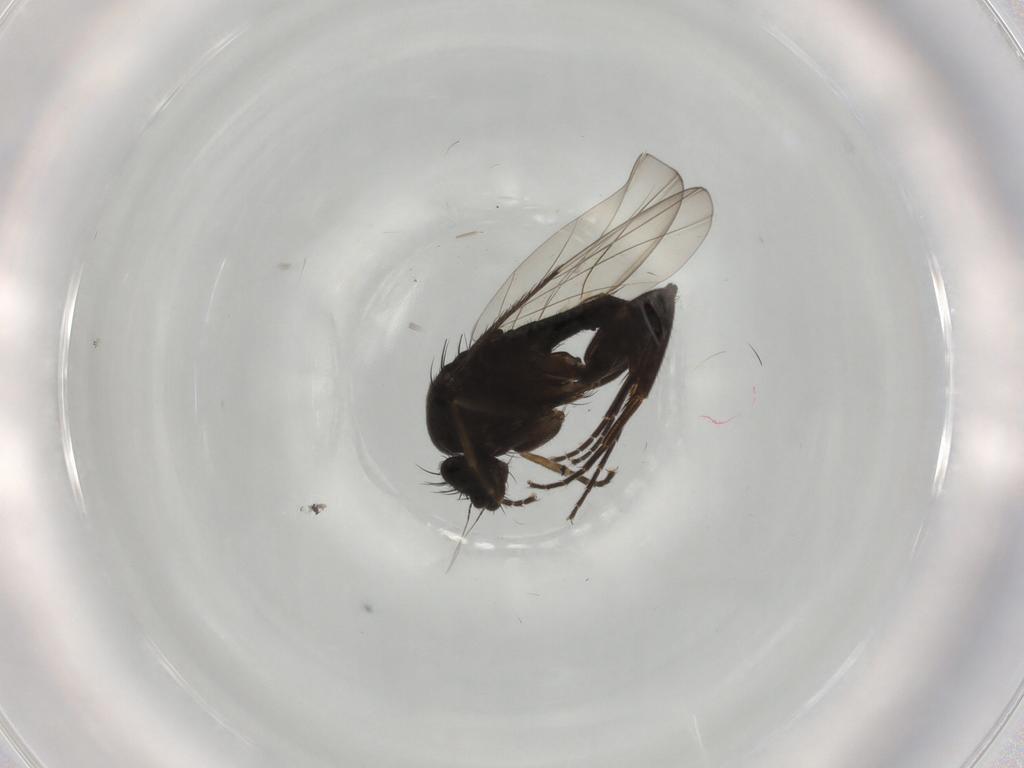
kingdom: Animalia
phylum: Arthropoda
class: Insecta
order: Diptera
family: Phoridae
